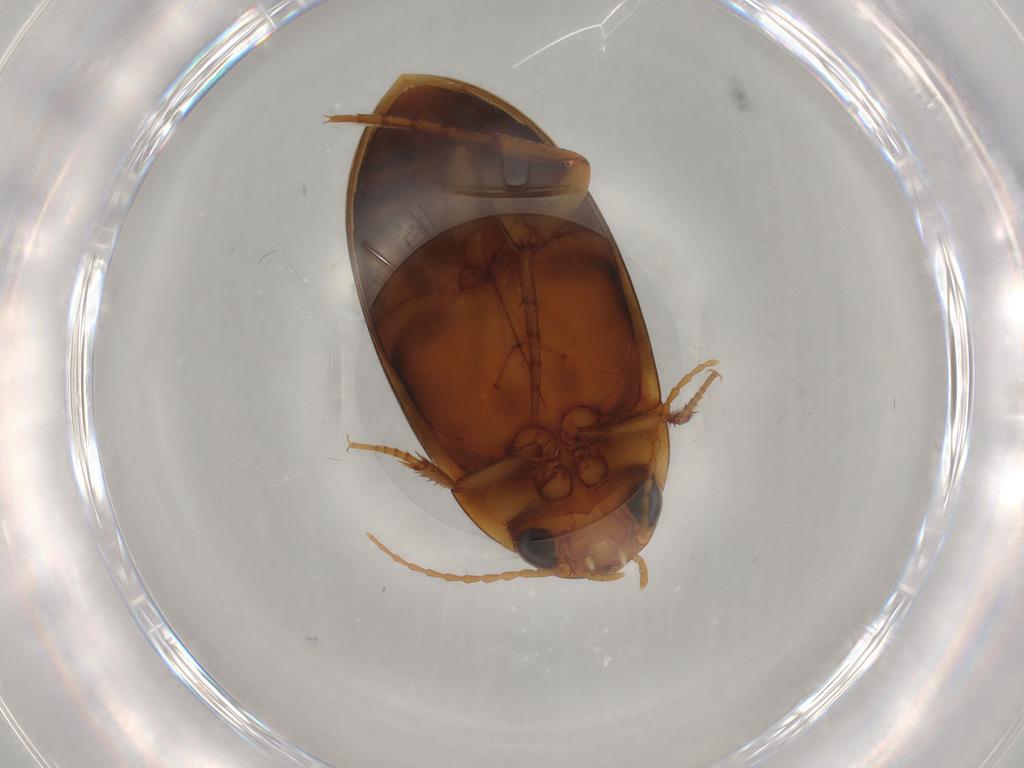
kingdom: Animalia
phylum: Arthropoda
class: Insecta
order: Coleoptera
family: Dytiscidae
